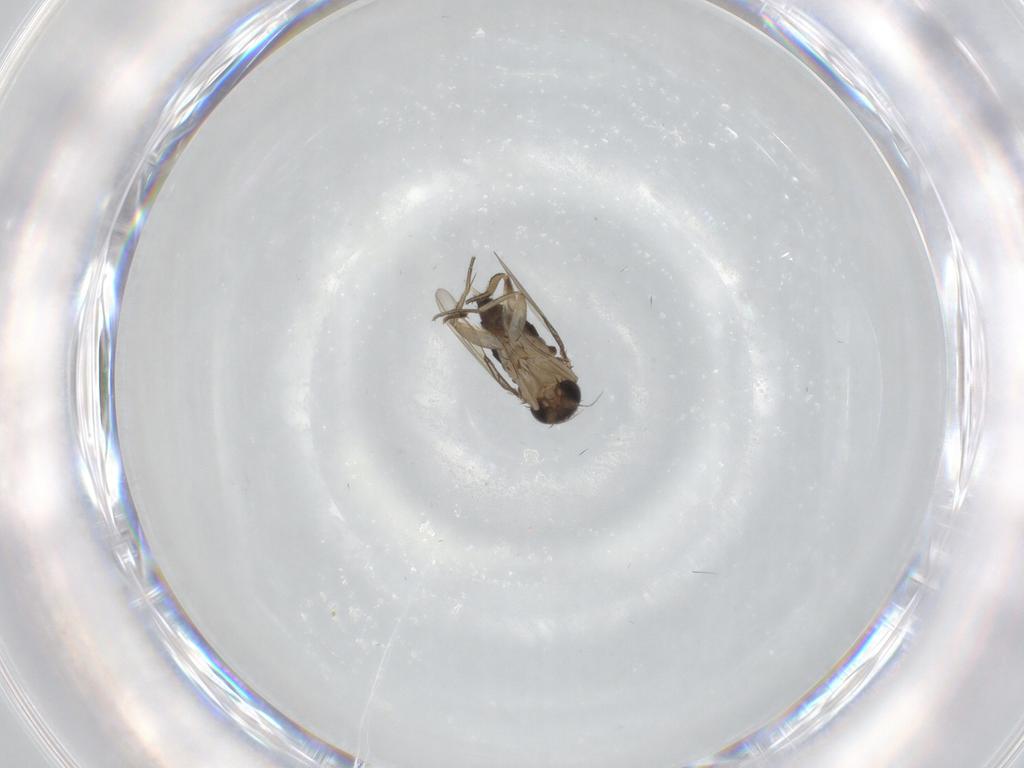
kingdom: Animalia
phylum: Arthropoda
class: Insecta
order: Diptera
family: Phoridae
